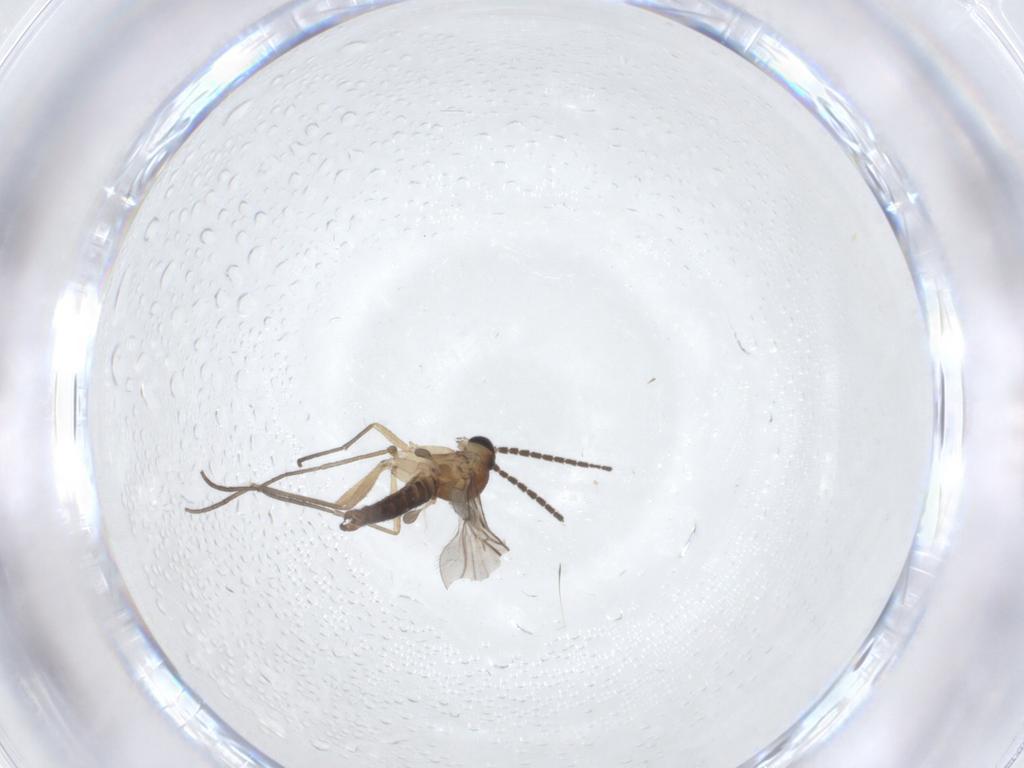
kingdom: Animalia
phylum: Arthropoda
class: Insecta
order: Diptera
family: Sciaridae
